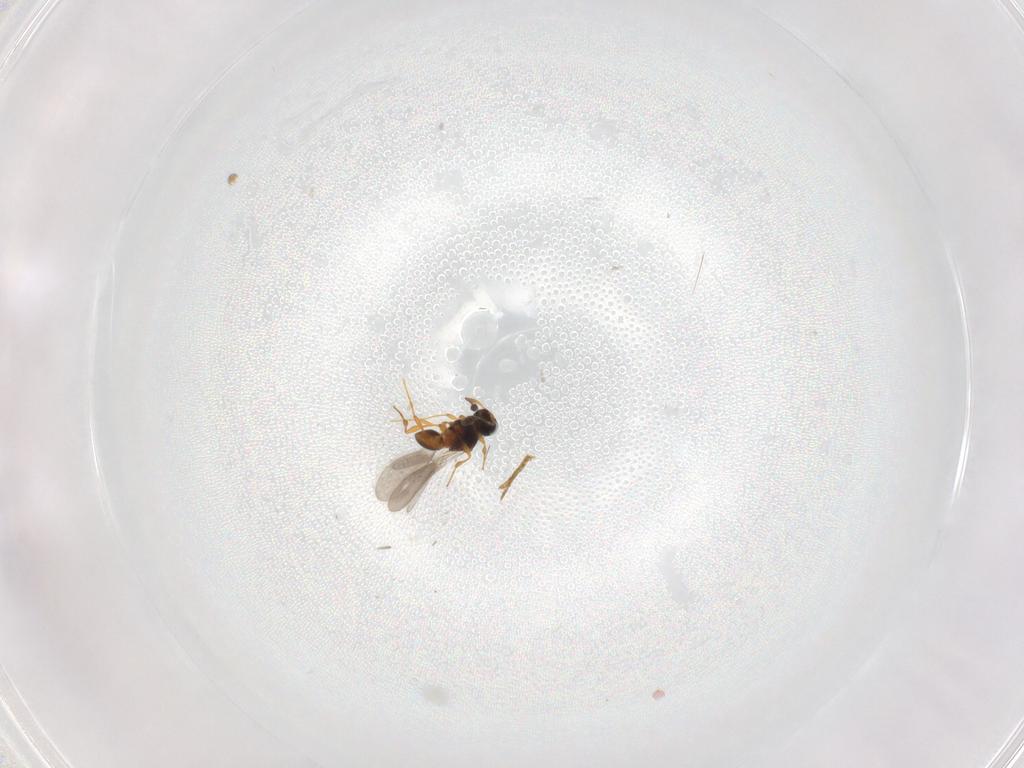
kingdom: Animalia
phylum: Arthropoda
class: Insecta
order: Hymenoptera
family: Platygastridae
